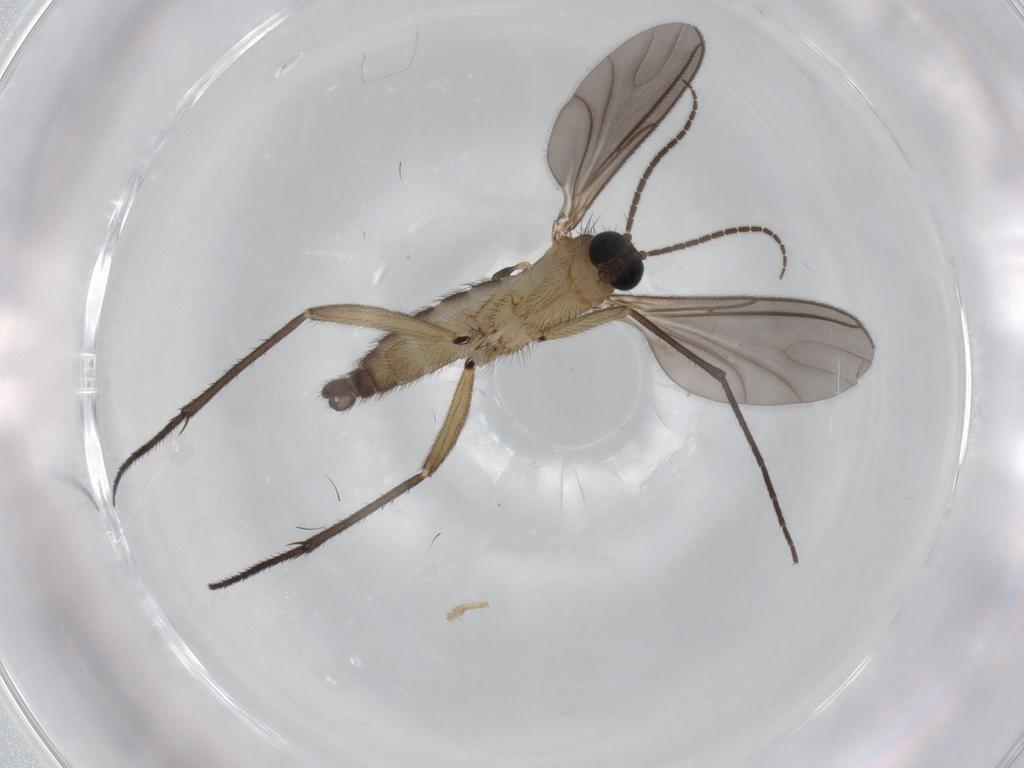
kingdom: Animalia
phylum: Arthropoda
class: Insecta
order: Diptera
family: Sciaridae
